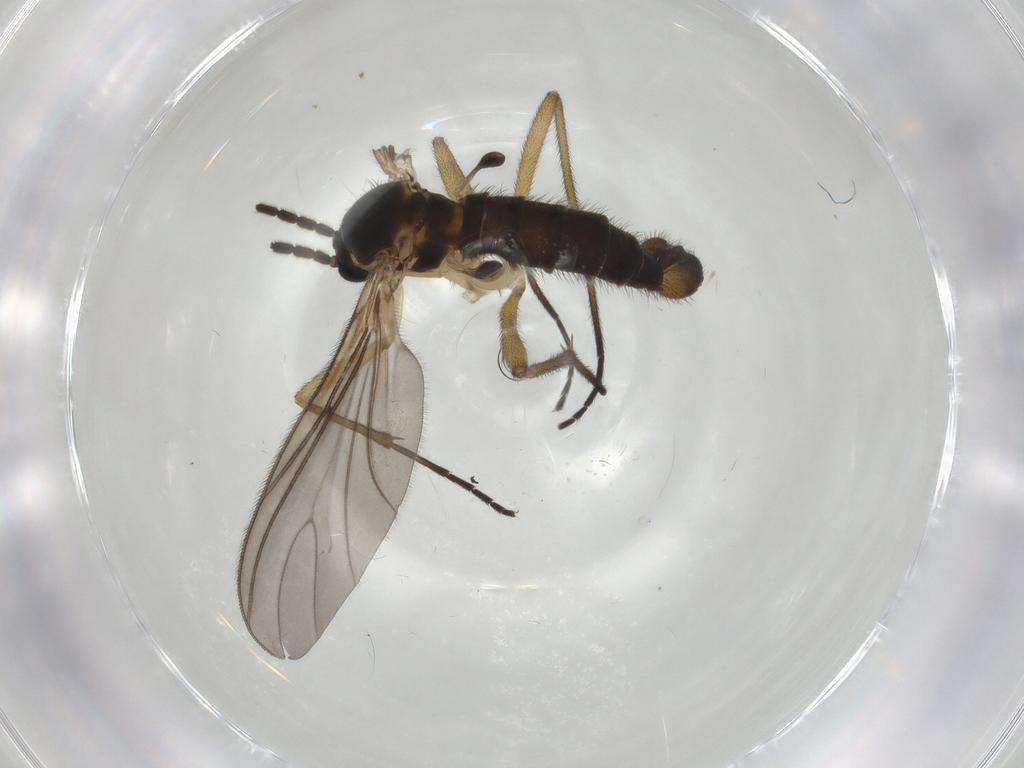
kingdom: Animalia
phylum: Arthropoda
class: Insecta
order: Diptera
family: Sciaridae
